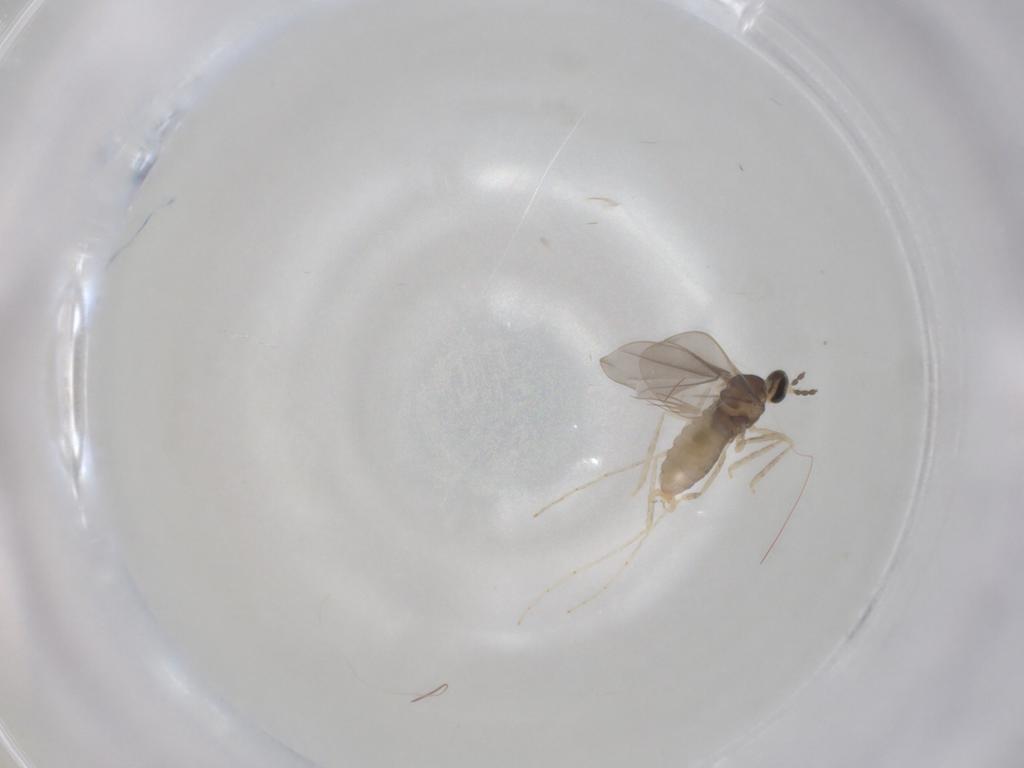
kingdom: Animalia
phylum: Arthropoda
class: Insecta
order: Diptera
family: Cecidomyiidae
